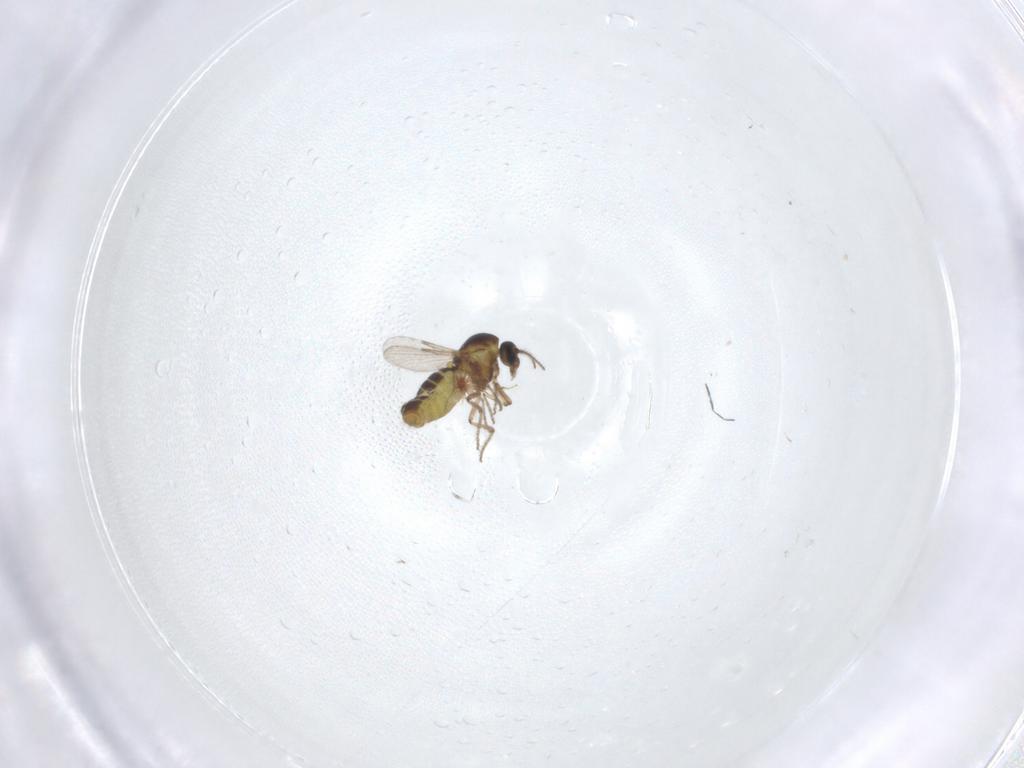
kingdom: Animalia
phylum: Arthropoda
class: Insecta
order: Diptera
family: Ceratopogonidae
